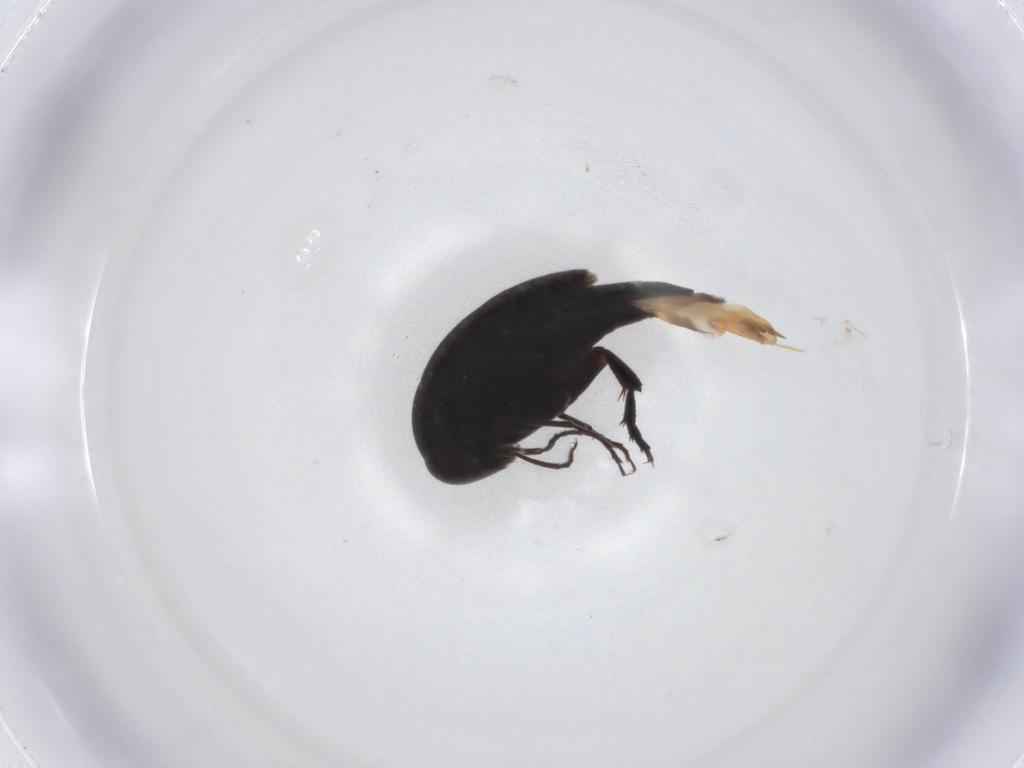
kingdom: Animalia
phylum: Arthropoda
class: Insecta
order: Coleoptera
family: Mordellidae
